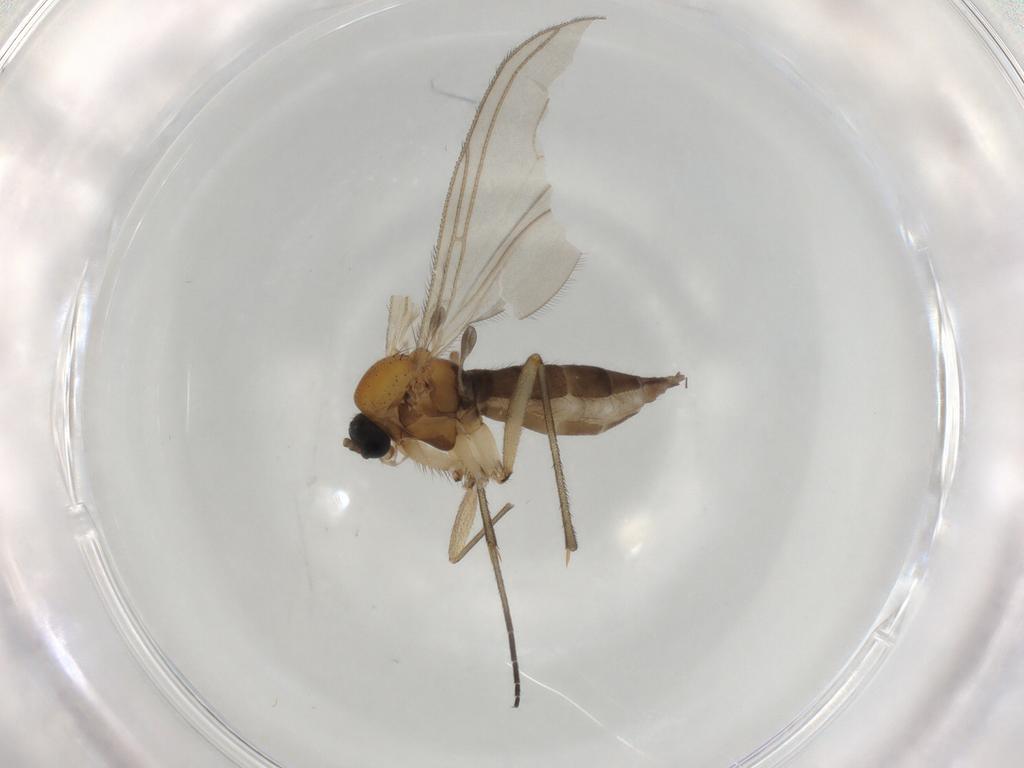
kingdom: Animalia
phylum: Arthropoda
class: Insecta
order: Diptera
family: Sciaridae
